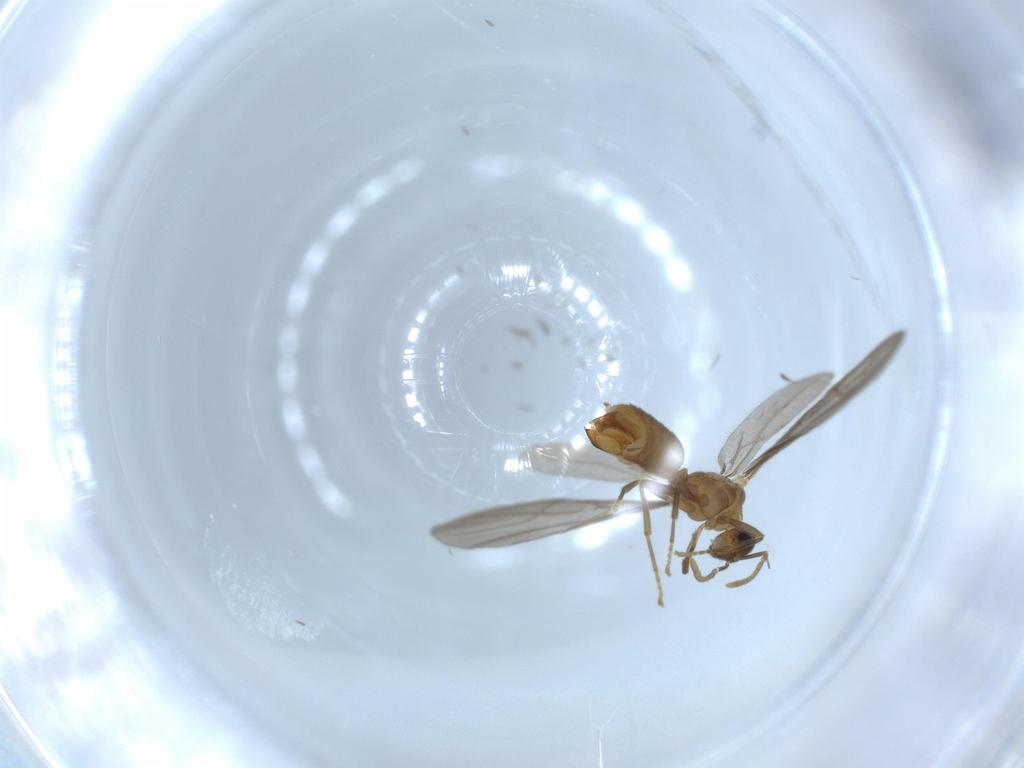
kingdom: Animalia
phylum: Arthropoda
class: Insecta
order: Hymenoptera
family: Formicidae
